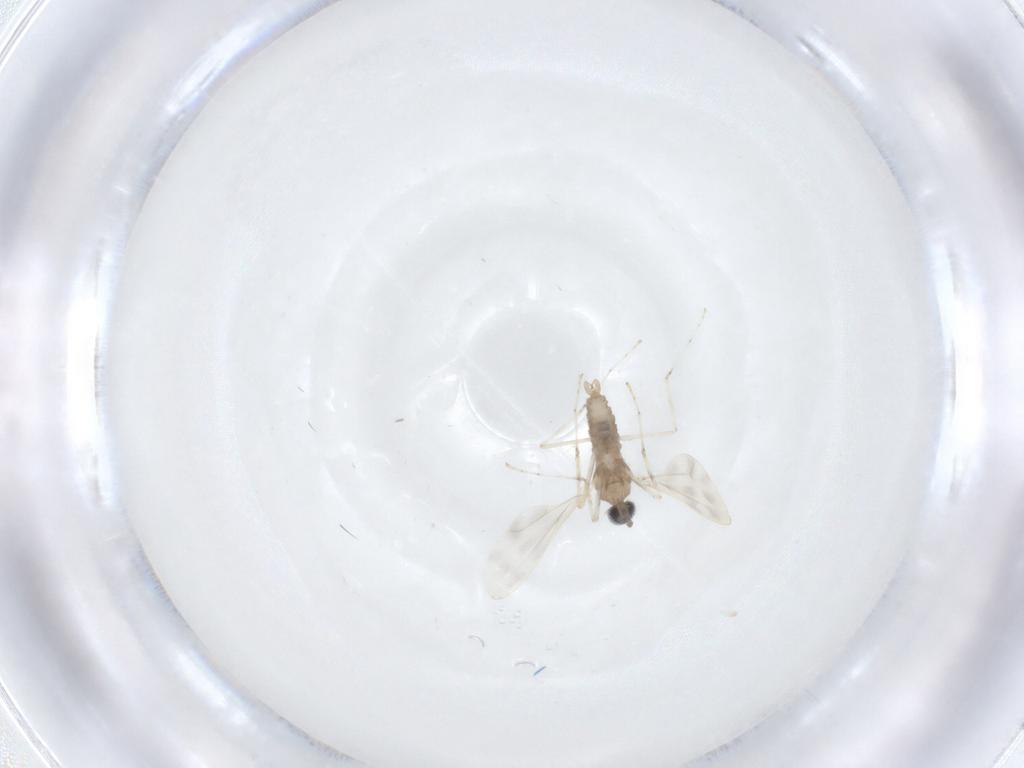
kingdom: Animalia
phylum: Arthropoda
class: Insecta
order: Diptera
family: Cecidomyiidae
